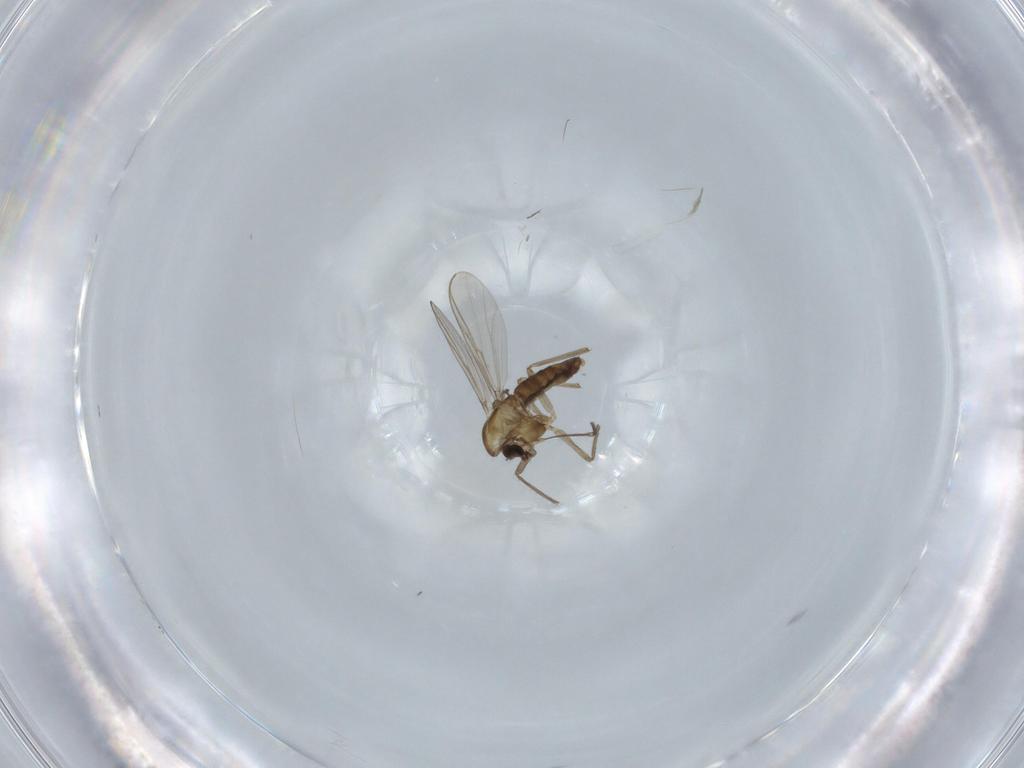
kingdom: Animalia
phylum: Arthropoda
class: Insecta
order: Diptera
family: Chironomidae
